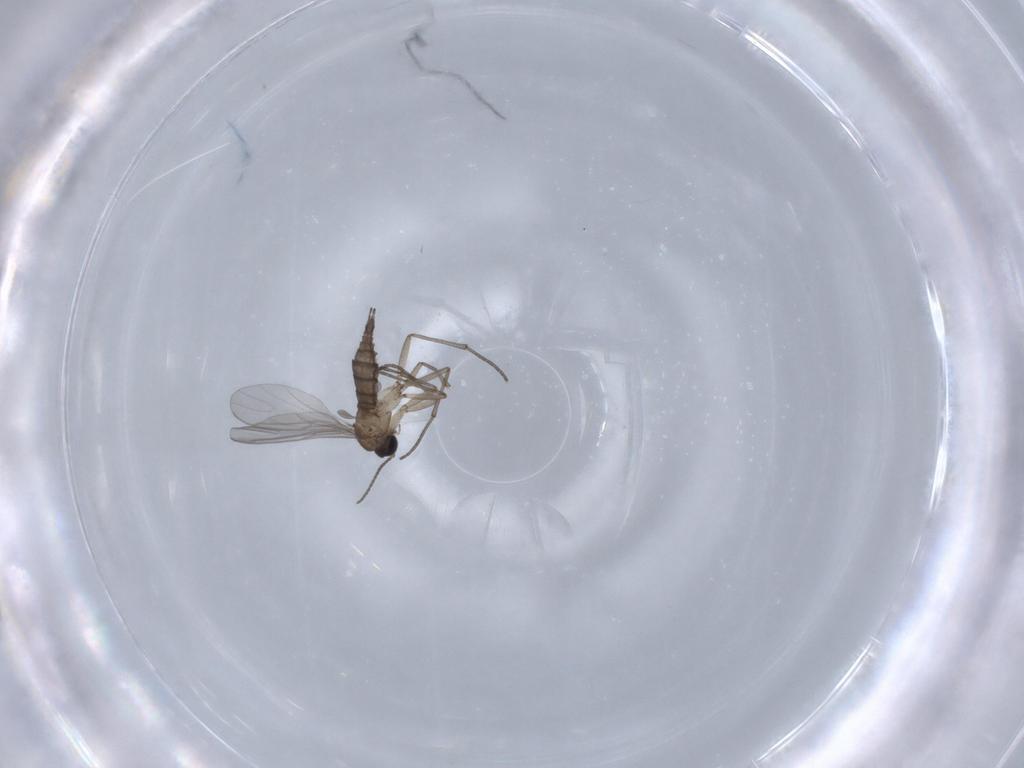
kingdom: Animalia
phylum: Arthropoda
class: Insecta
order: Diptera
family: Sciaridae
